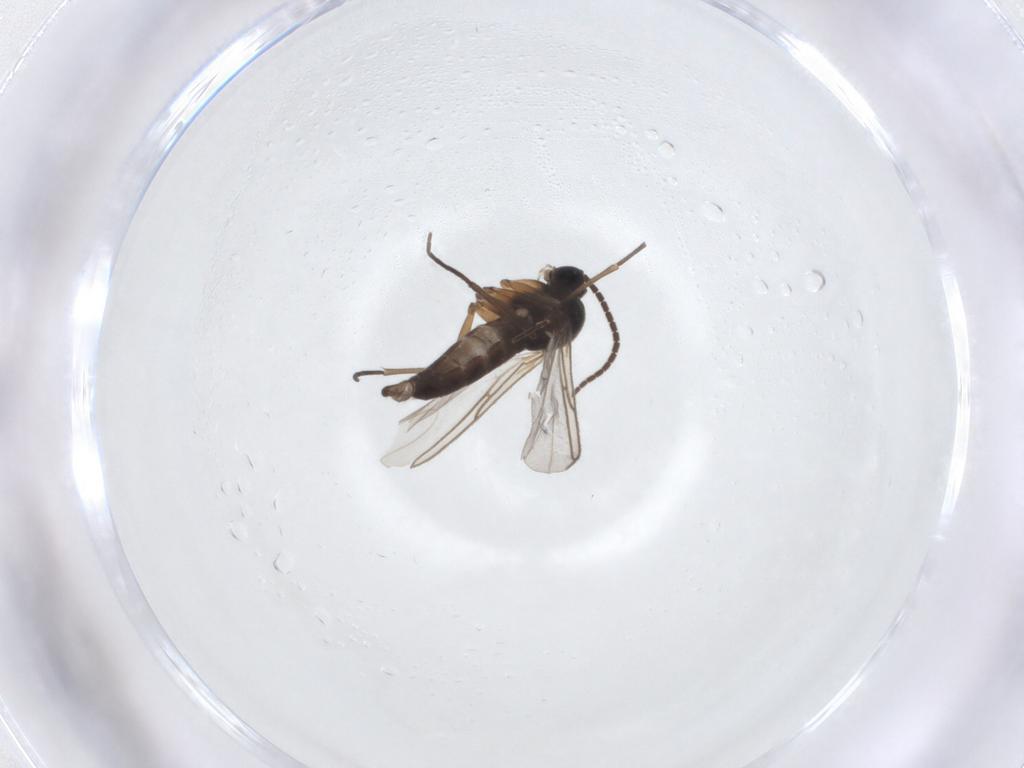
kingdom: Animalia
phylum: Arthropoda
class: Insecta
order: Diptera
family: Sciaridae
